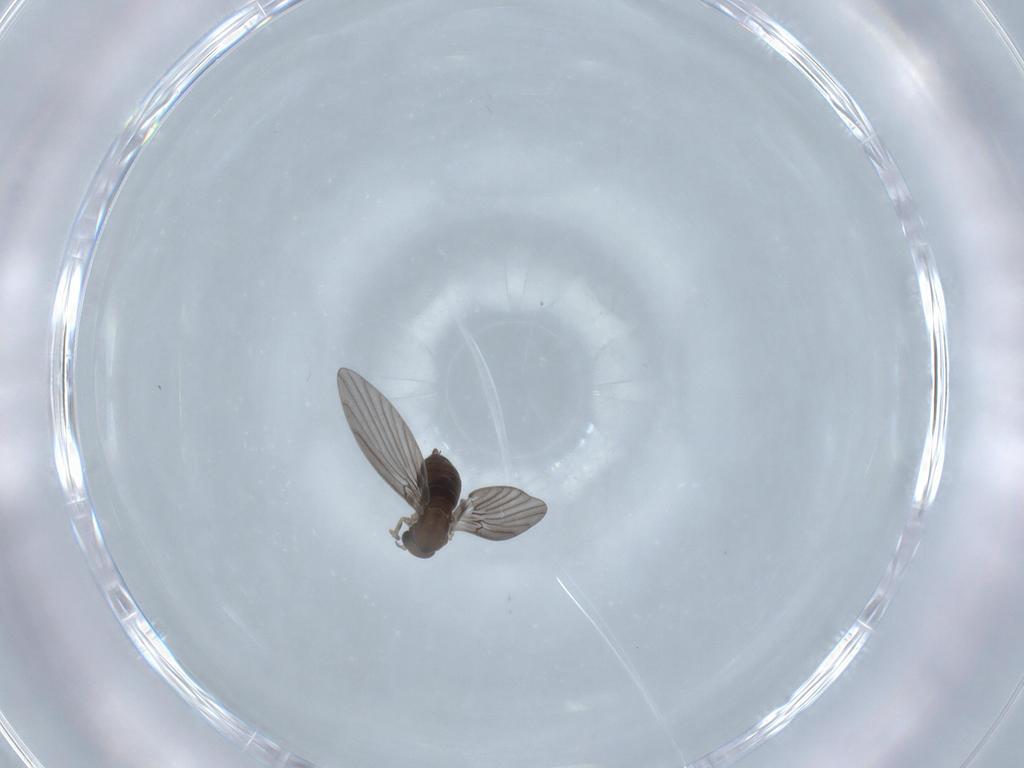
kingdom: Animalia
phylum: Arthropoda
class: Insecta
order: Diptera
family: Psychodidae
